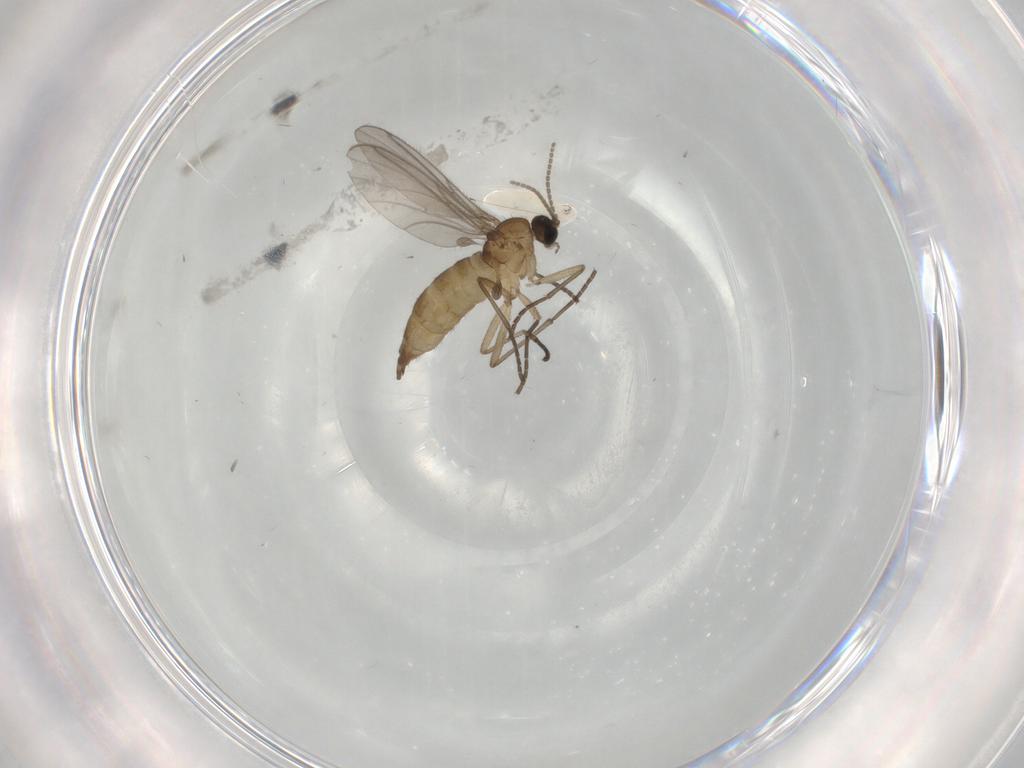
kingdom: Animalia
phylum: Arthropoda
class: Insecta
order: Diptera
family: Sciaridae
